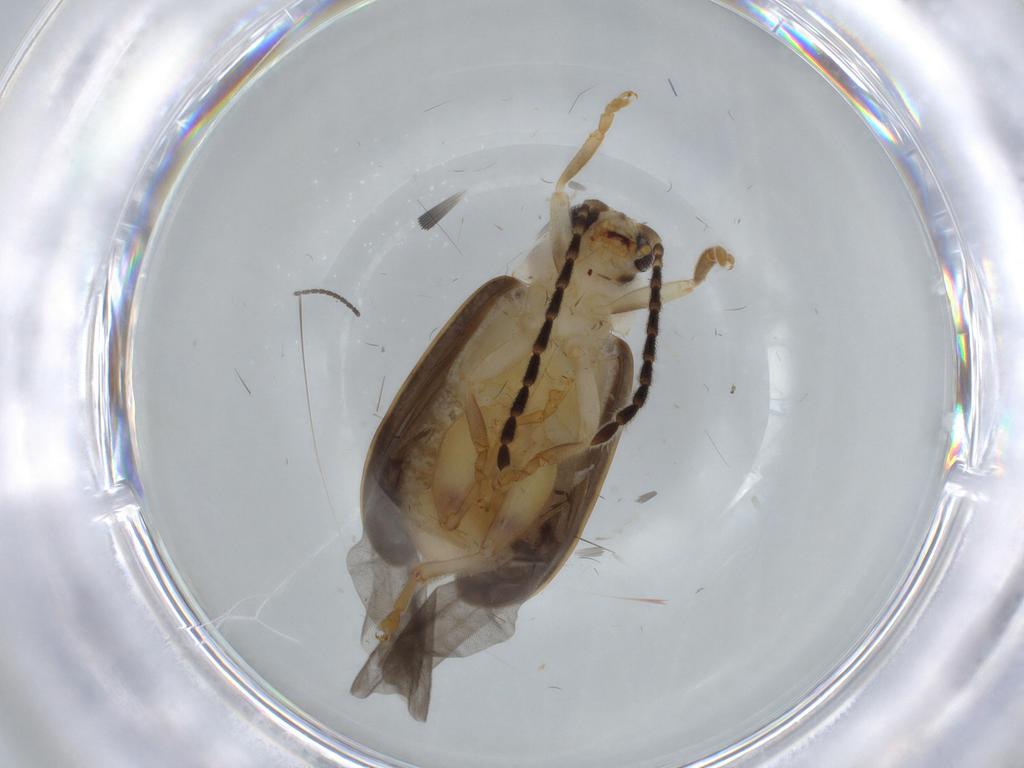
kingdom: Animalia
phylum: Arthropoda
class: Insecta
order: Coleoptera
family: Chrysomelidae
